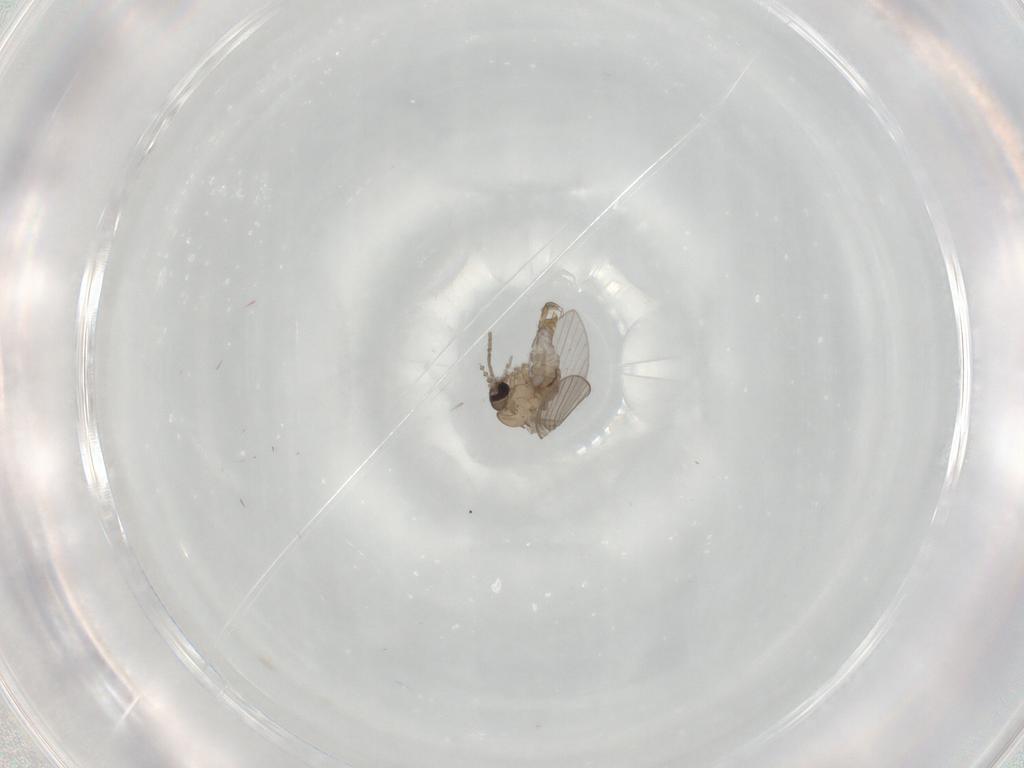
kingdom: Animalia
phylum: Arthropoda
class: Insecta
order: Diptera
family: Psychodidae
